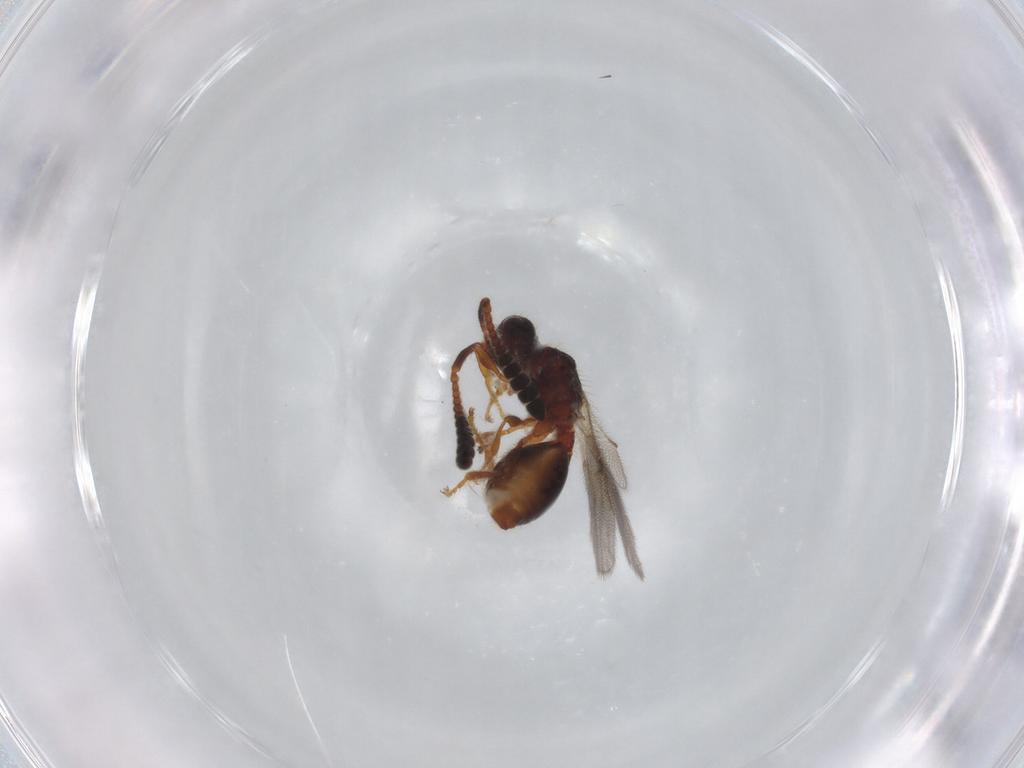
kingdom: Animalia
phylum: Arthropoda
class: Insecta
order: Hymenoptera
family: Diapriidae
